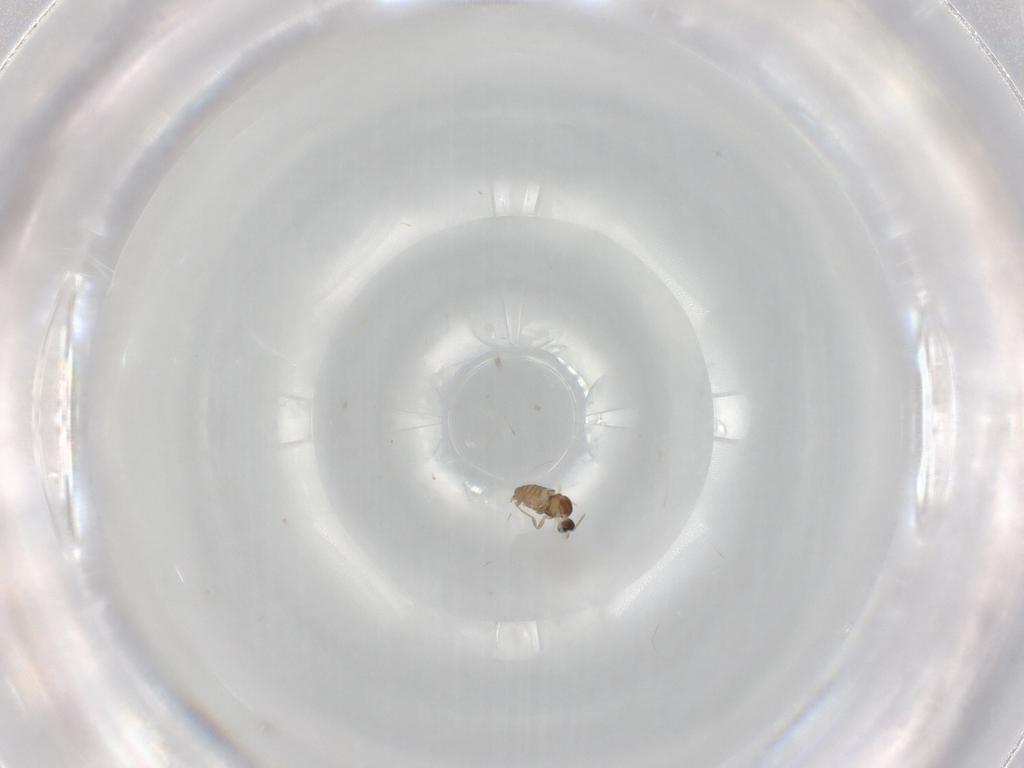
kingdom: Animalia
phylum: Arthropoda
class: Insecta
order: Diptera
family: Cecidomyiidae
